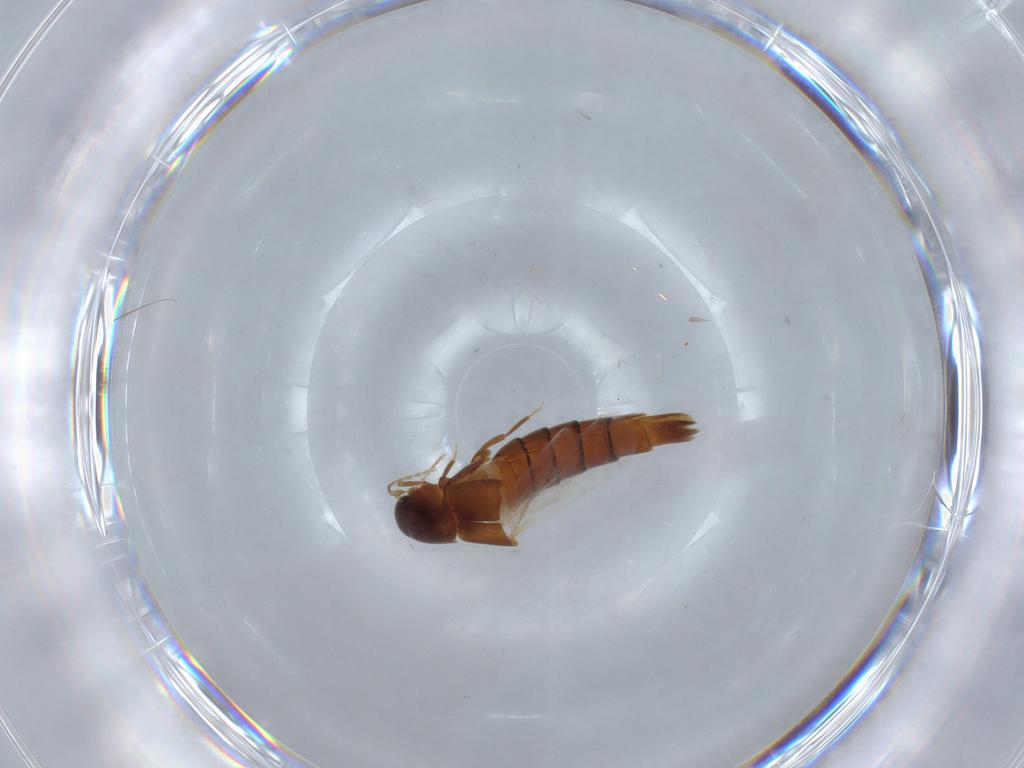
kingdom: Animalia
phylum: Arthropoda
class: Insecta
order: Coleoptera
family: Staphylinidae
